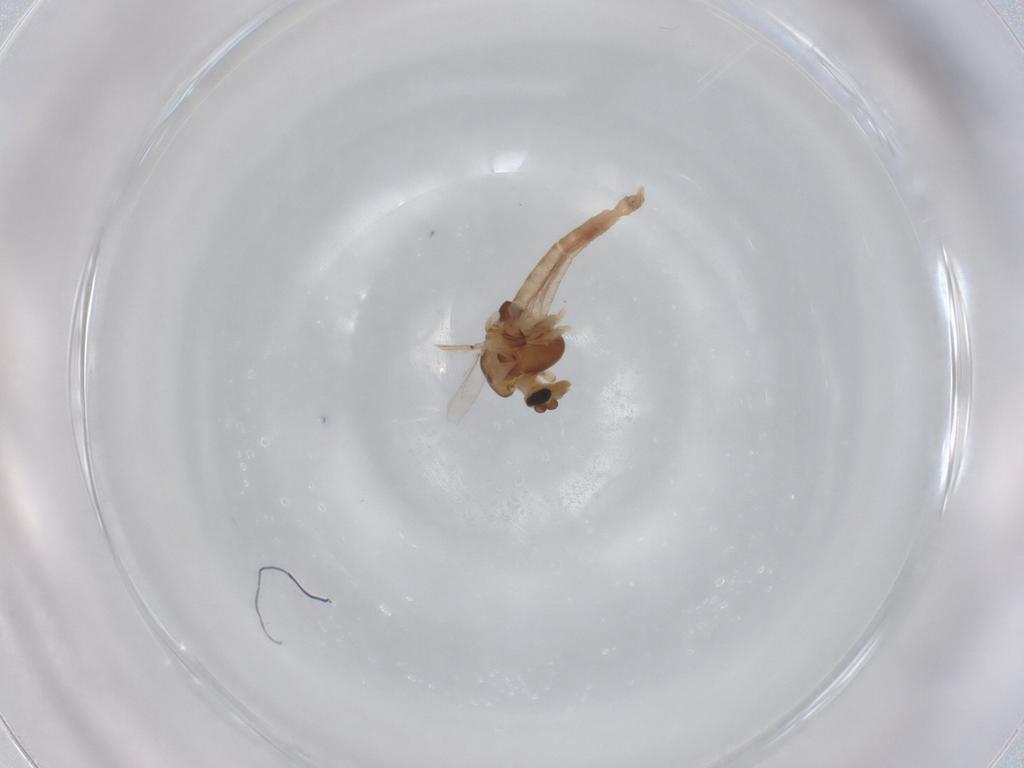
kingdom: Animalia
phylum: Arthropoda
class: Insecta
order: Diptera
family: Chironomidae
